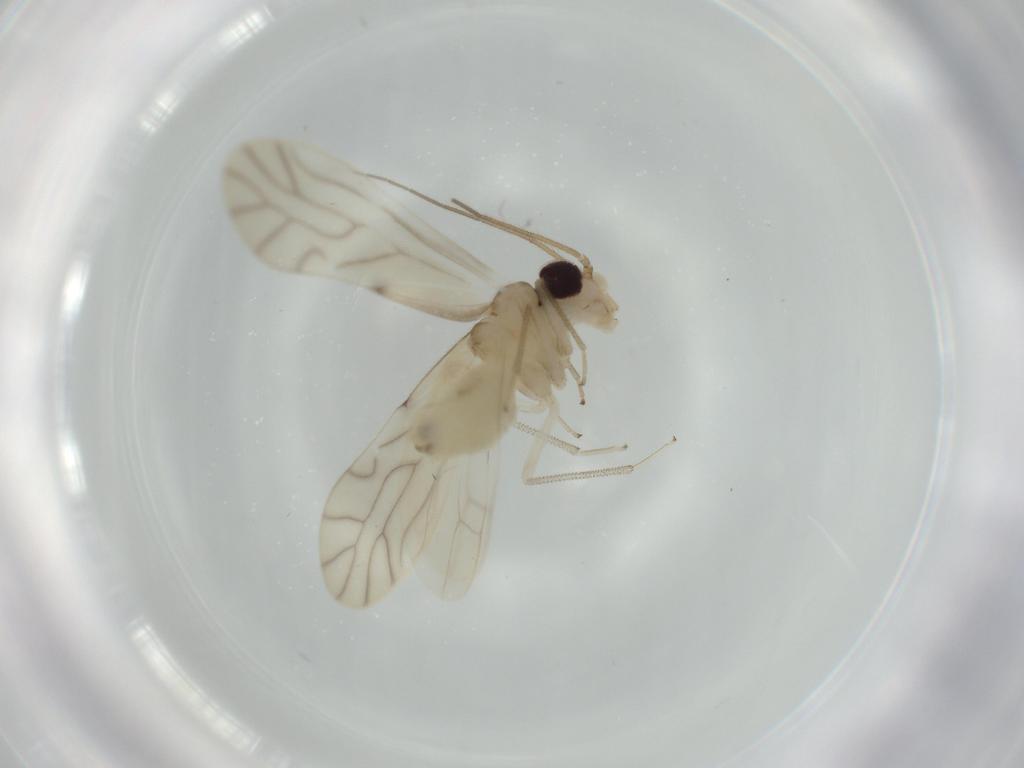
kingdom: Animalia
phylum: Arthropoda
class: Insecta
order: Psocodea
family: Caeciliusidae
